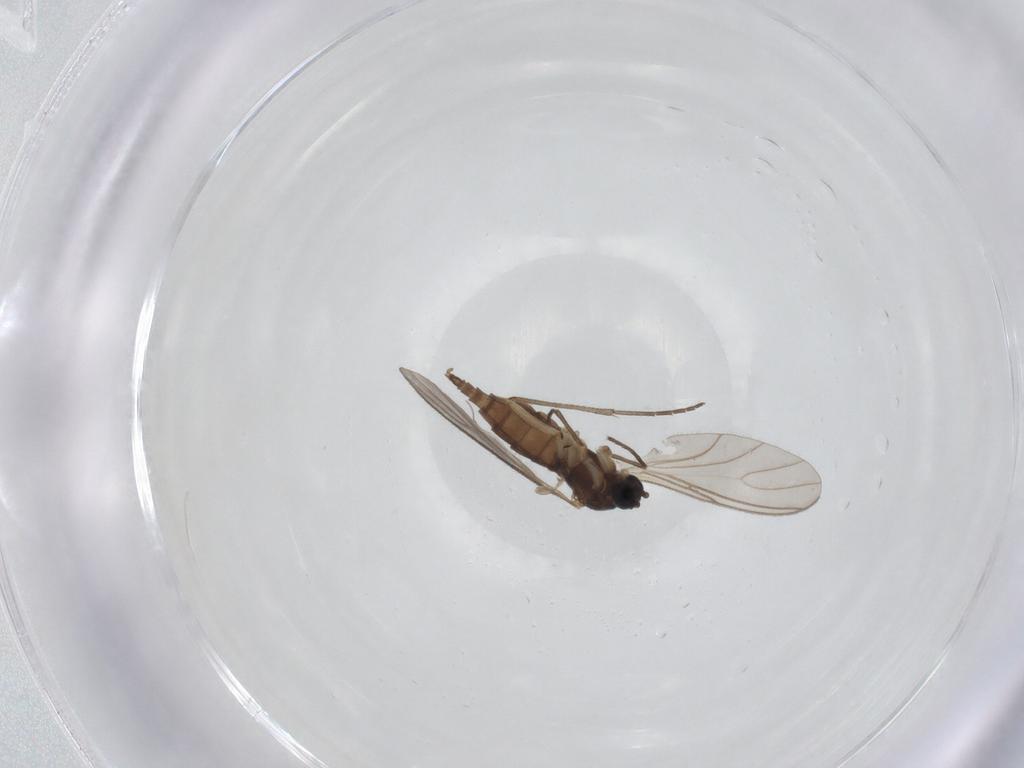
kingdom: Animalia
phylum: Arthropoda
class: Insecta
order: Diptera
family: Sciaridae
